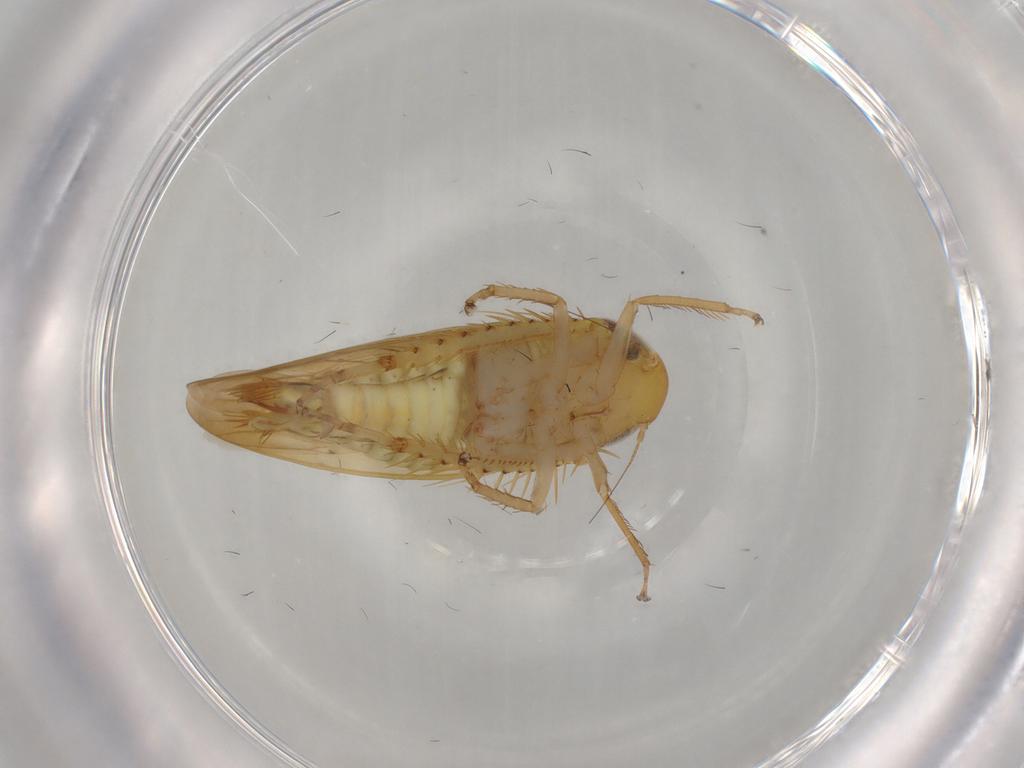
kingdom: Animalia
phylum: Arthropoda
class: Insecta
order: Hemiptera
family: Cicadellidae
